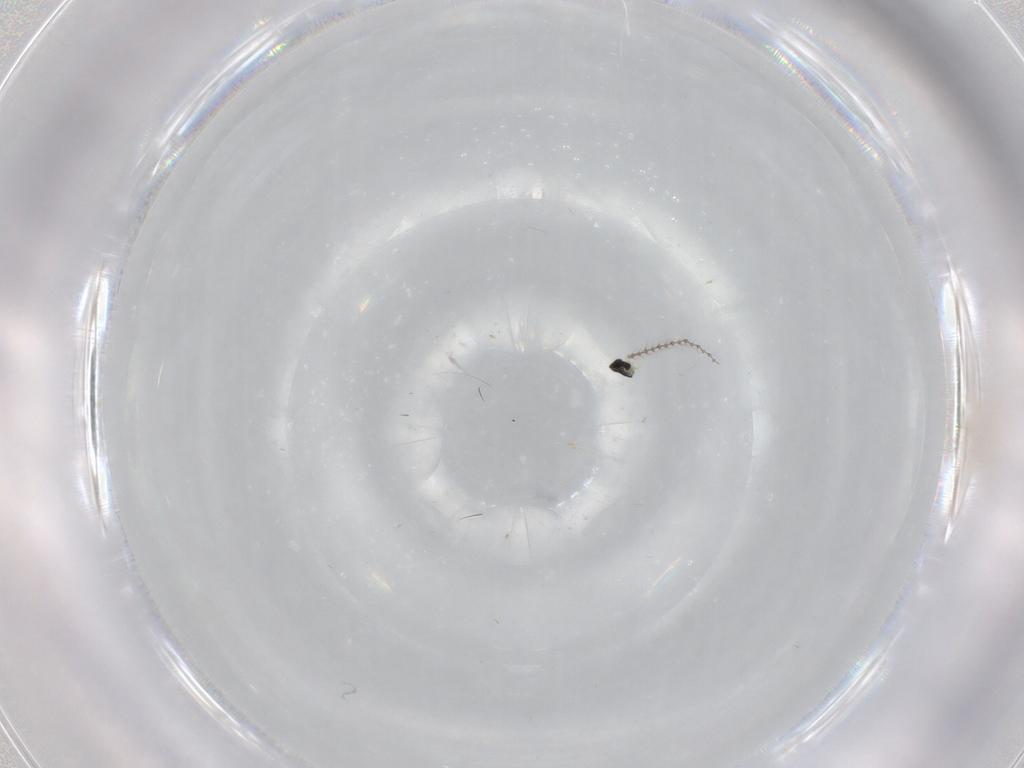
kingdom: Animalia
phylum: Arthropoda
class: Insecta
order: Diptera
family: Cecidomyiidae
